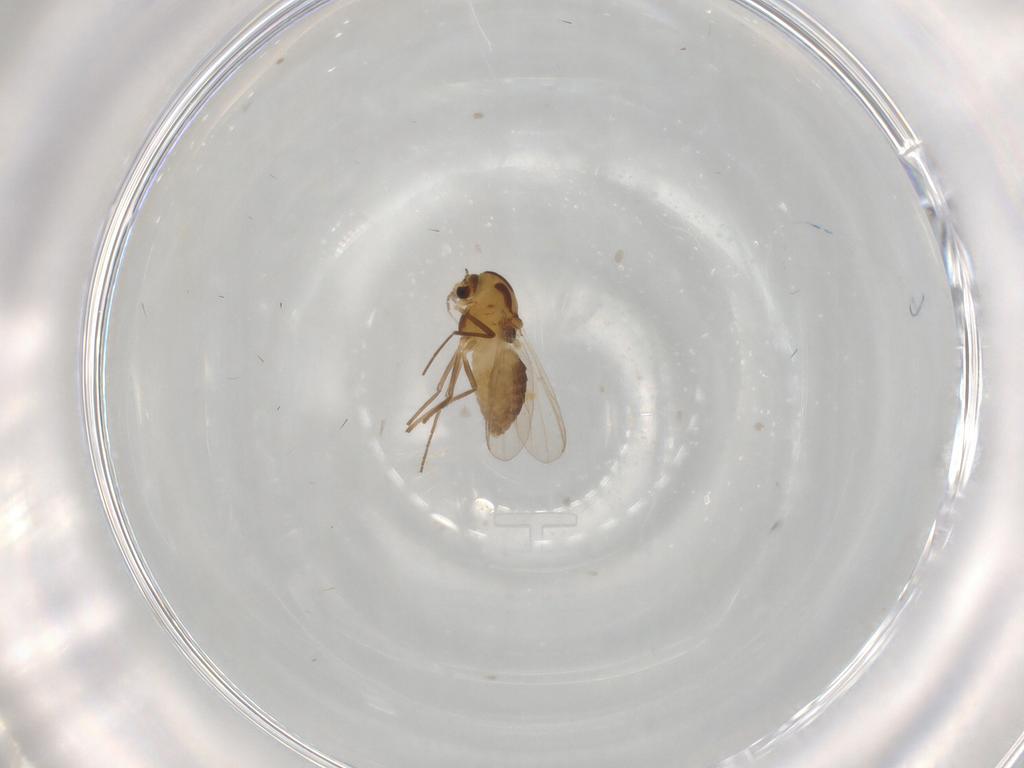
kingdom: Animalia
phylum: Arthropoda
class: Insecta
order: Diptera
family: Chironomidae
